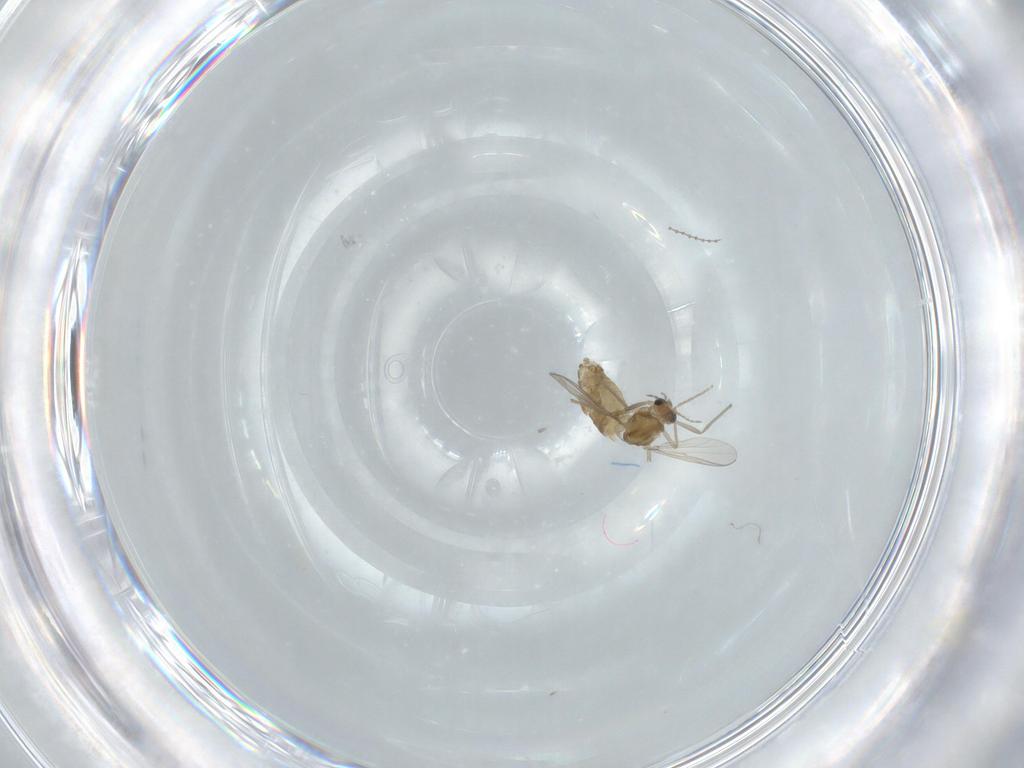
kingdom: Animalia
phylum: Arthropoda
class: Insecta
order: Diptera
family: Chironomidae
